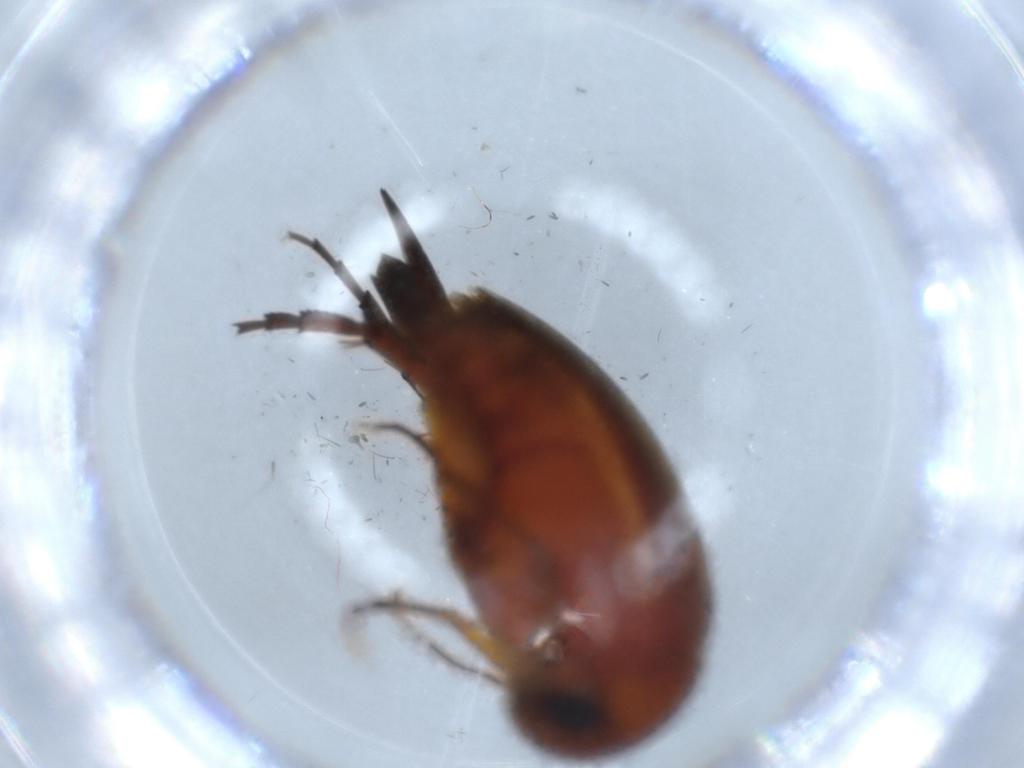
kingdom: Animalia
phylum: Arthropoda
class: Insecta
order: Coleoptera
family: Mordellidae
